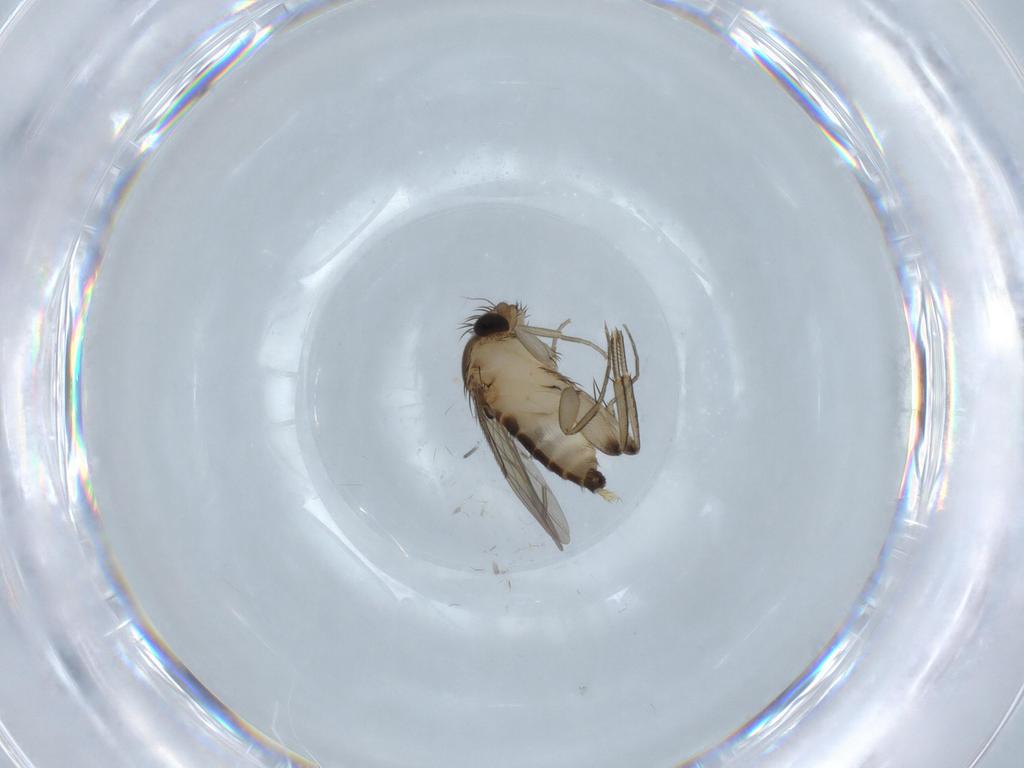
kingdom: Animalia
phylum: Arthropoda
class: Insecta
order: Diptera
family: Phoridae
